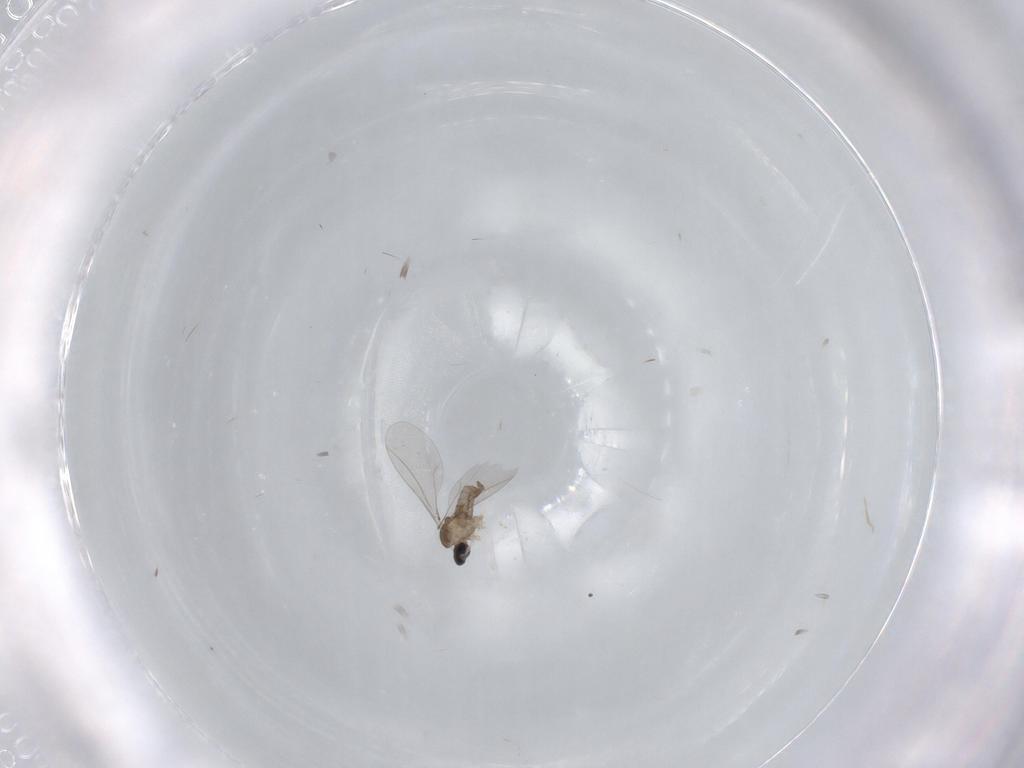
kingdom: Animalia
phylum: Arthropoda
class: Insecta
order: Diptera
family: Cecidomyiidae
